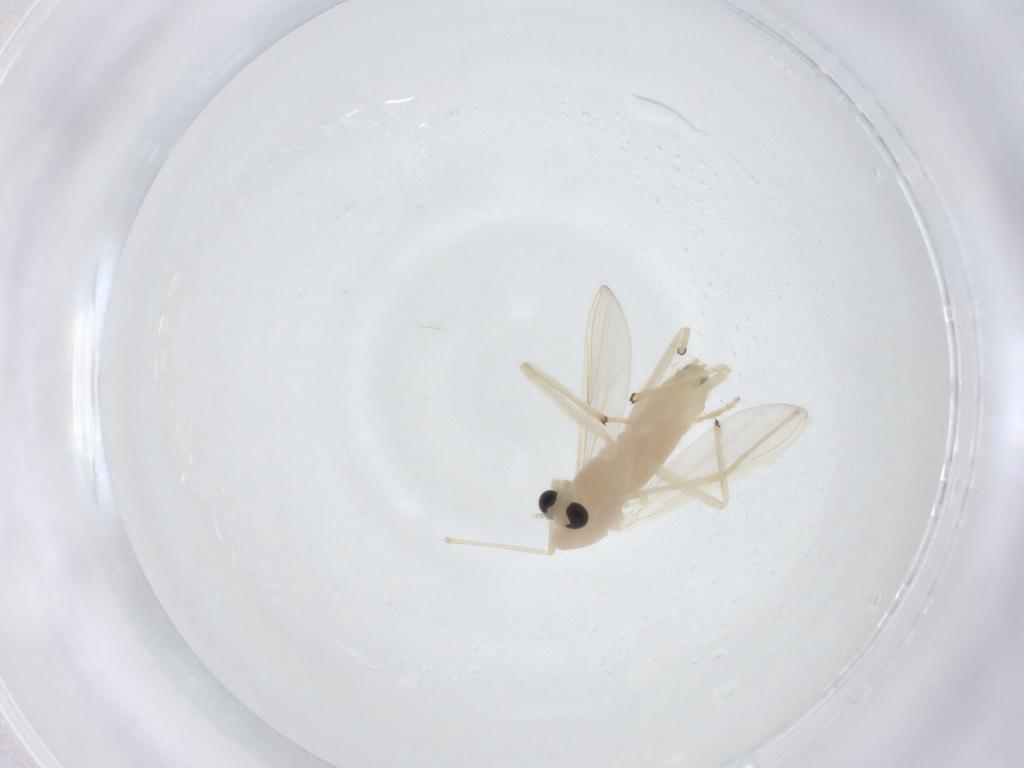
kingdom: Animalia
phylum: Arthropoda
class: Insecta
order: Diptera
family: Chironomidae
